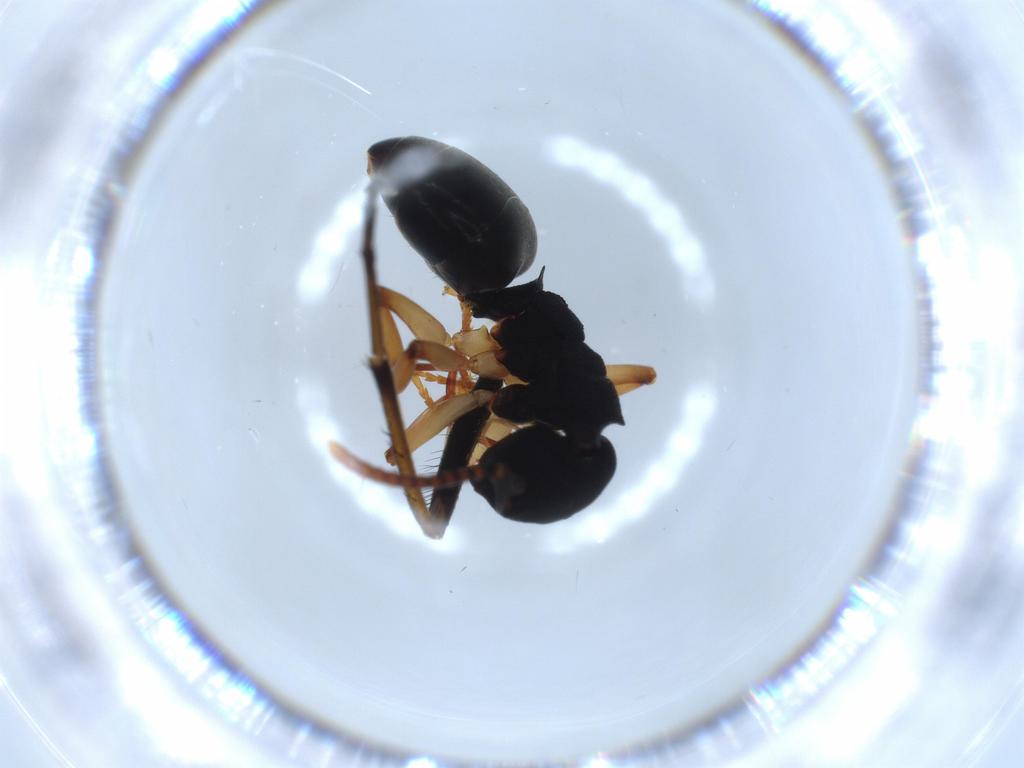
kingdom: Animalia
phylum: Arthropoda
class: Insecta
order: Hymenoptera
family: Formicidae
